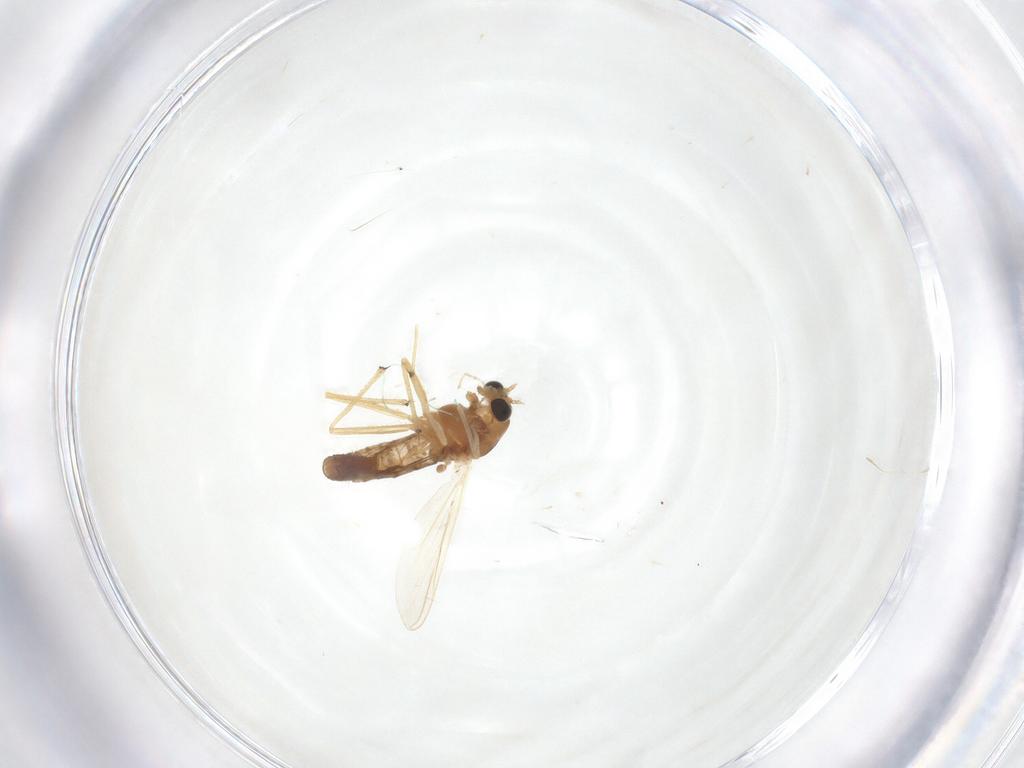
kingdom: Animalia
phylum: Arthropoda
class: Insecta
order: Diptera
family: Chironomidae
